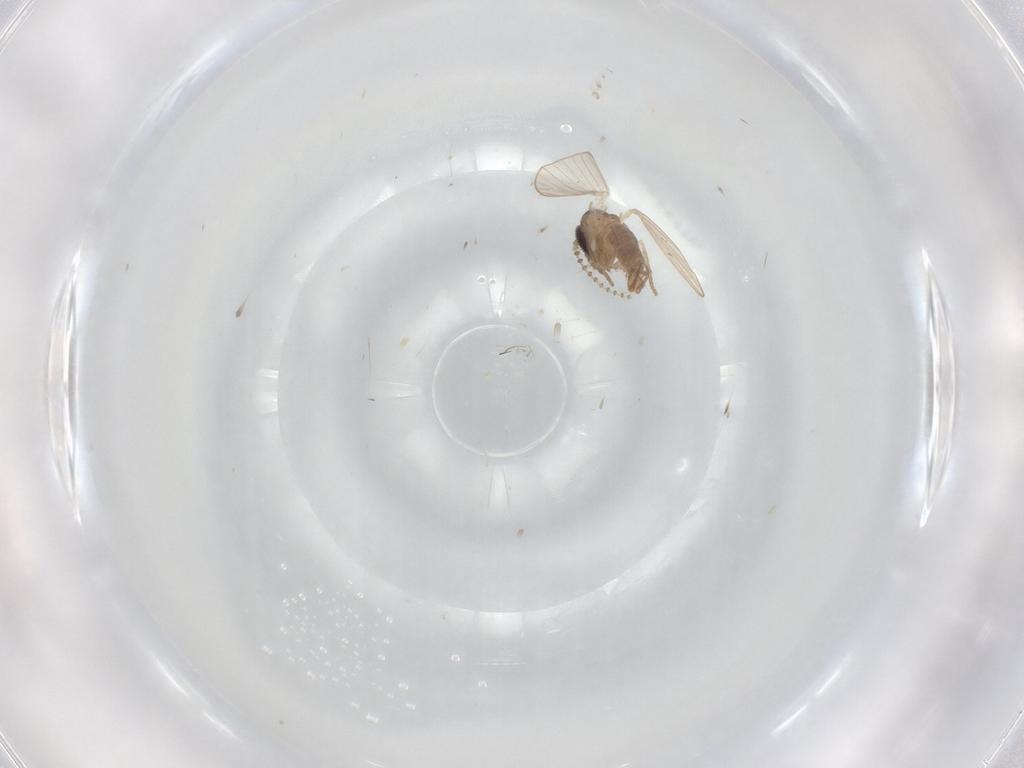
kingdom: Animalia
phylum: Arthropoda
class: Insecta
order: Diptera
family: Psychodidae
